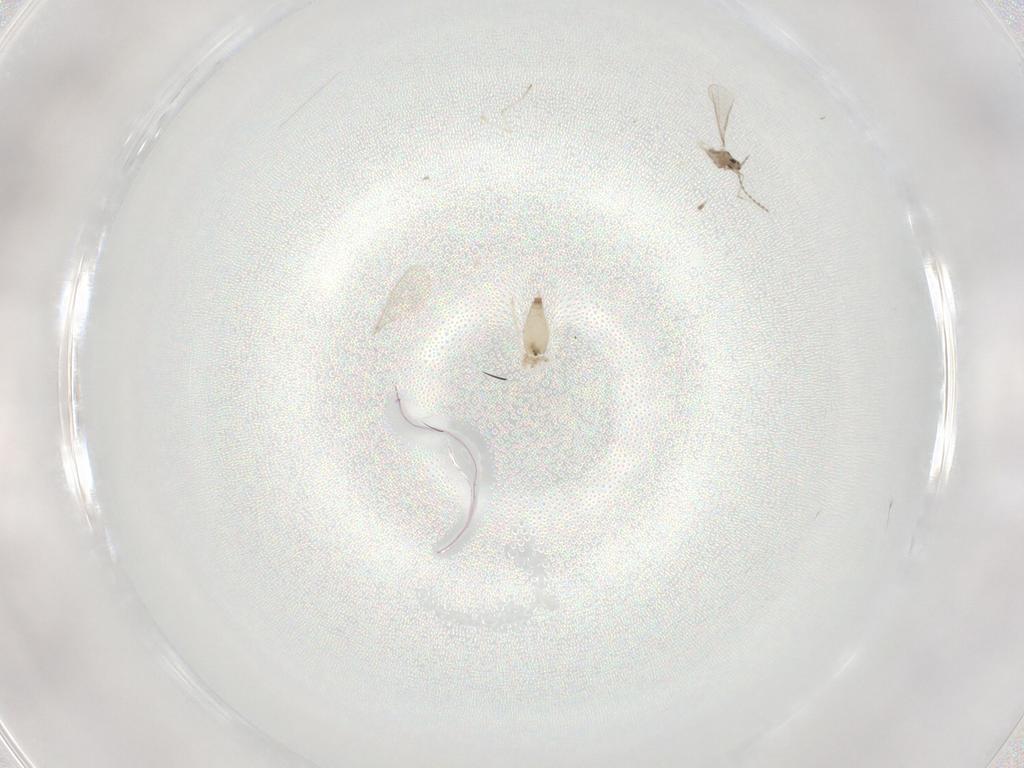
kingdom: Animalia
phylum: Arthropoda
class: Insecta
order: Diptera
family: Cecidomyiidae
